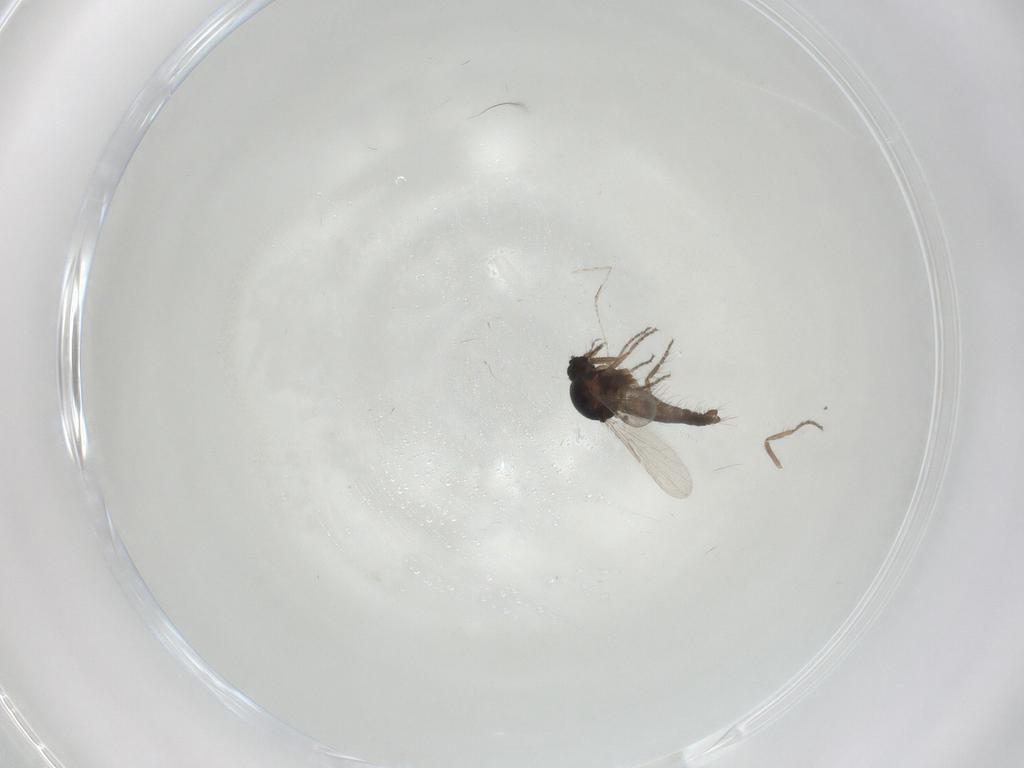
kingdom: Animalia
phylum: Arthropoda
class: Insecta
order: Diptera
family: Ceratopogonidae
